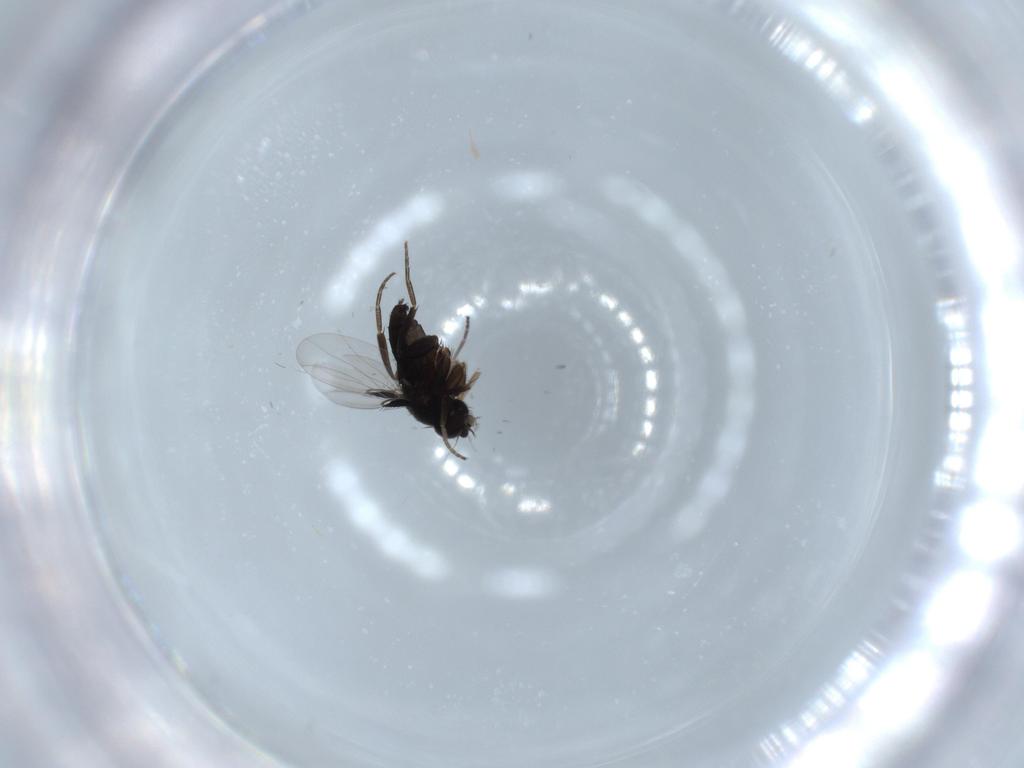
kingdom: Animalia
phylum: Arthropoda
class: Insecta
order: Diptera
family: Phoridae
